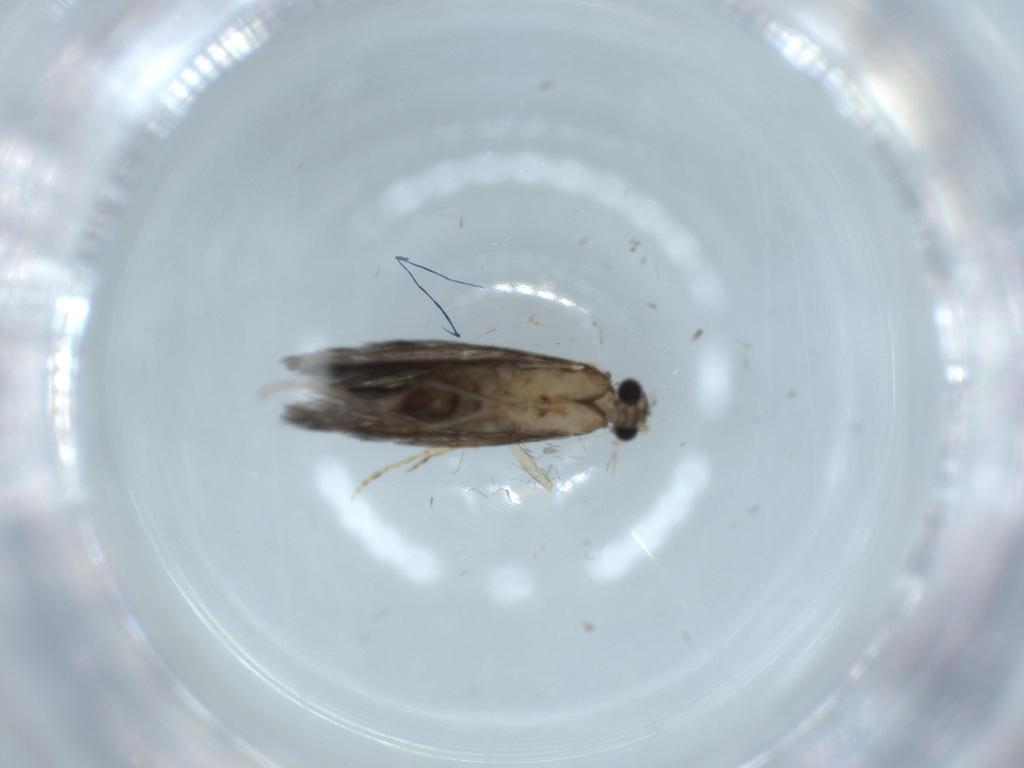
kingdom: Animalia
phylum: Arthropoda
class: Insecta
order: Trichoptera
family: Hydroptilidae
